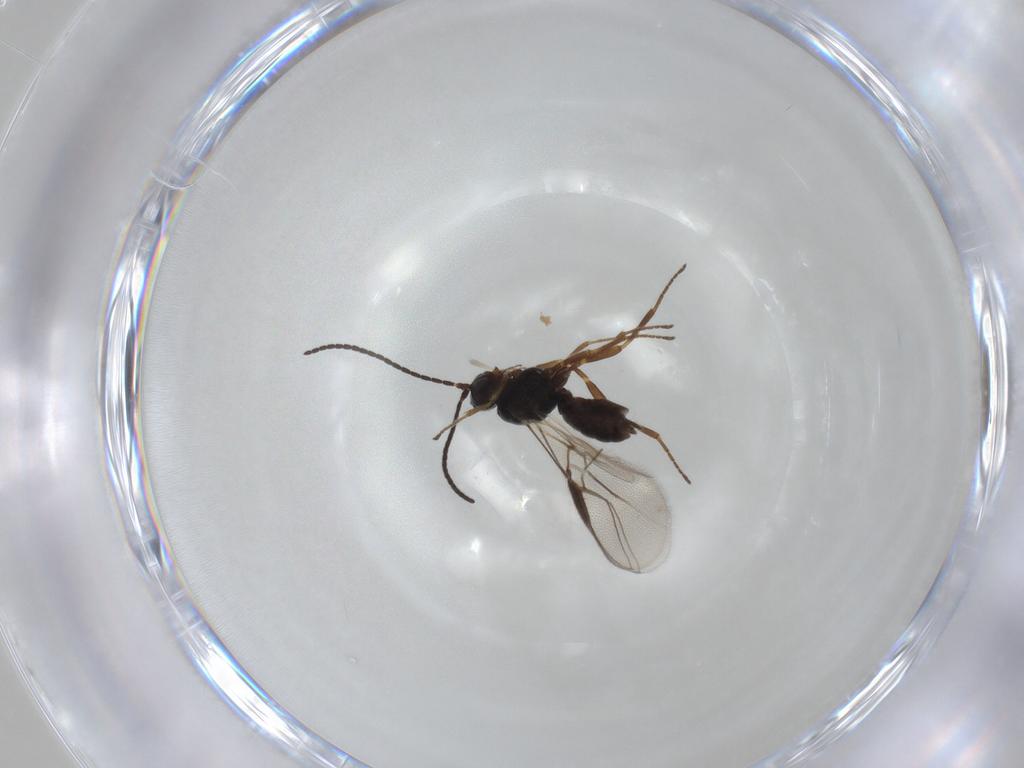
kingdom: Animalia
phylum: Arthropoda
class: Insecta
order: Hymenoptera
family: Braconidae
